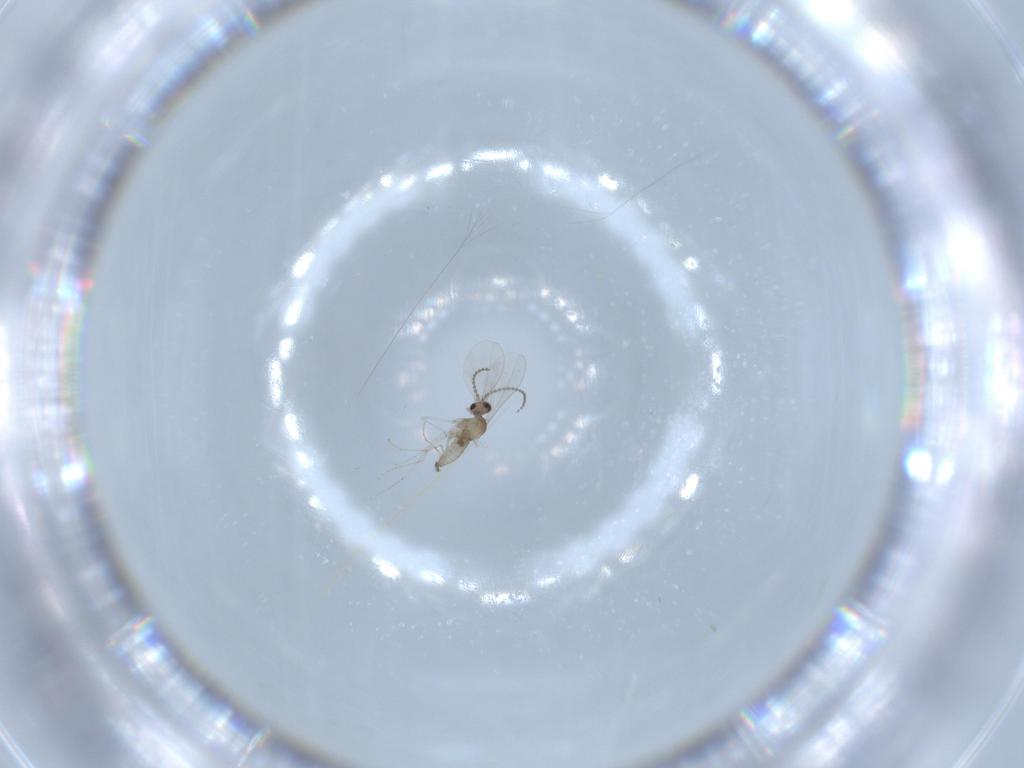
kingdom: Animalia
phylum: Arthropoda
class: Insecta
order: Diptera
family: Cecidomyiidae
